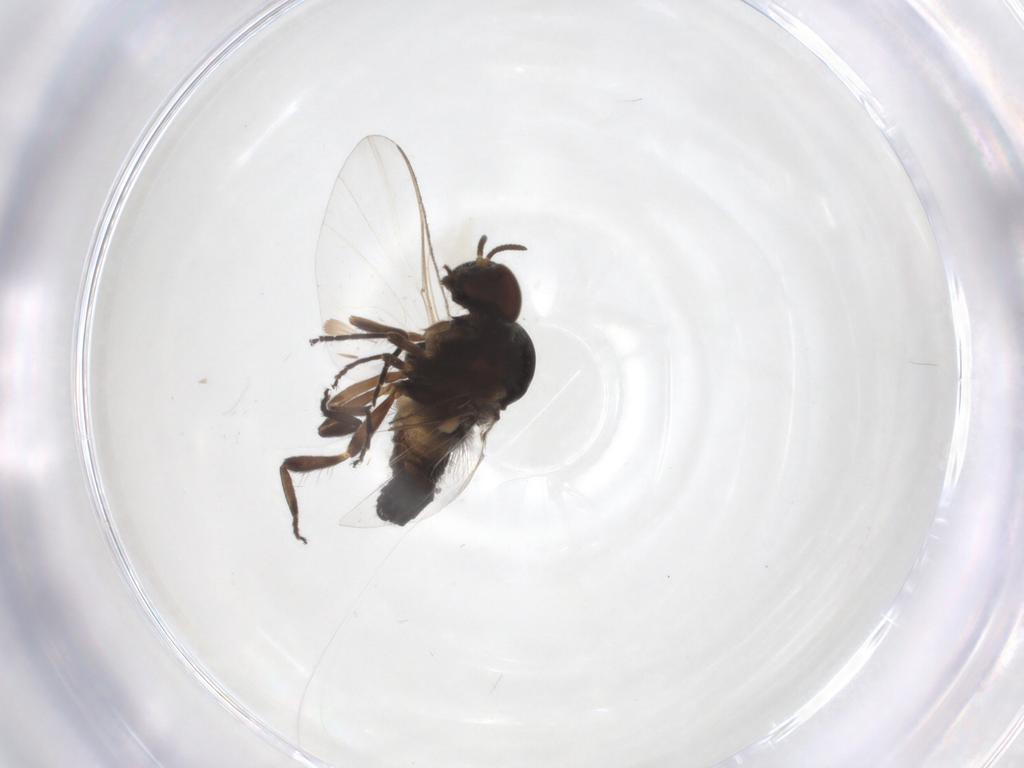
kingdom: Animalia
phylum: Arthropoda
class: Insecta
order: Diptera
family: Ceratopogonidae
